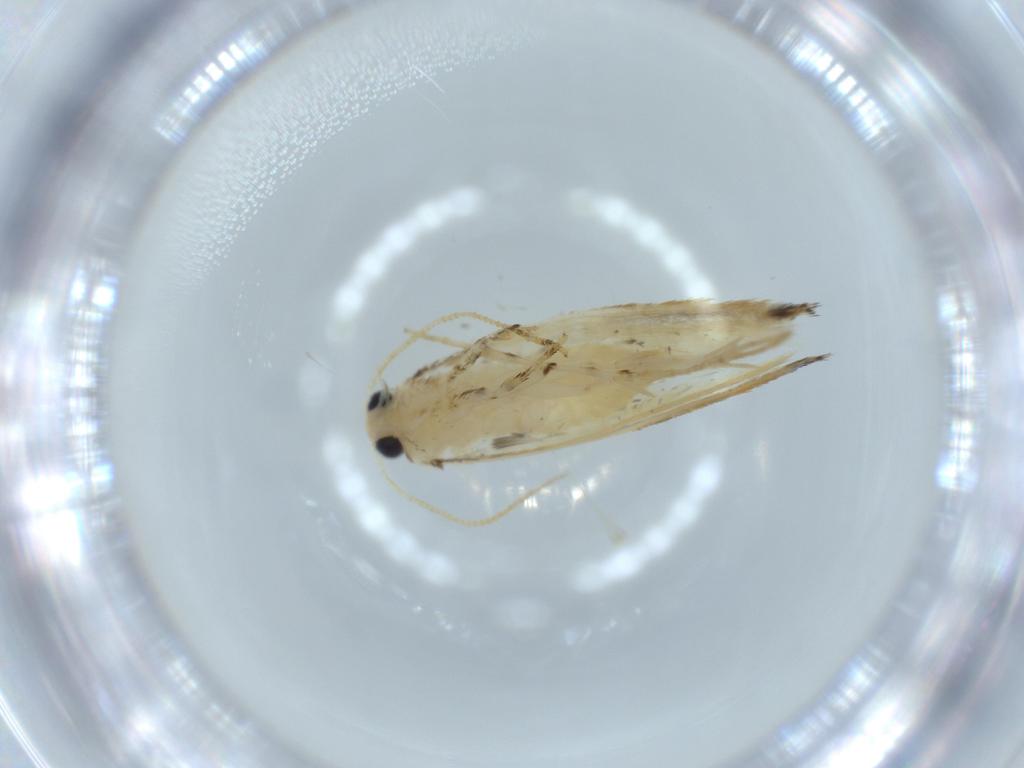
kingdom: Animalia
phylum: Arthropoda
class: Insecta
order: Lepidoptera
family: Tineidae
